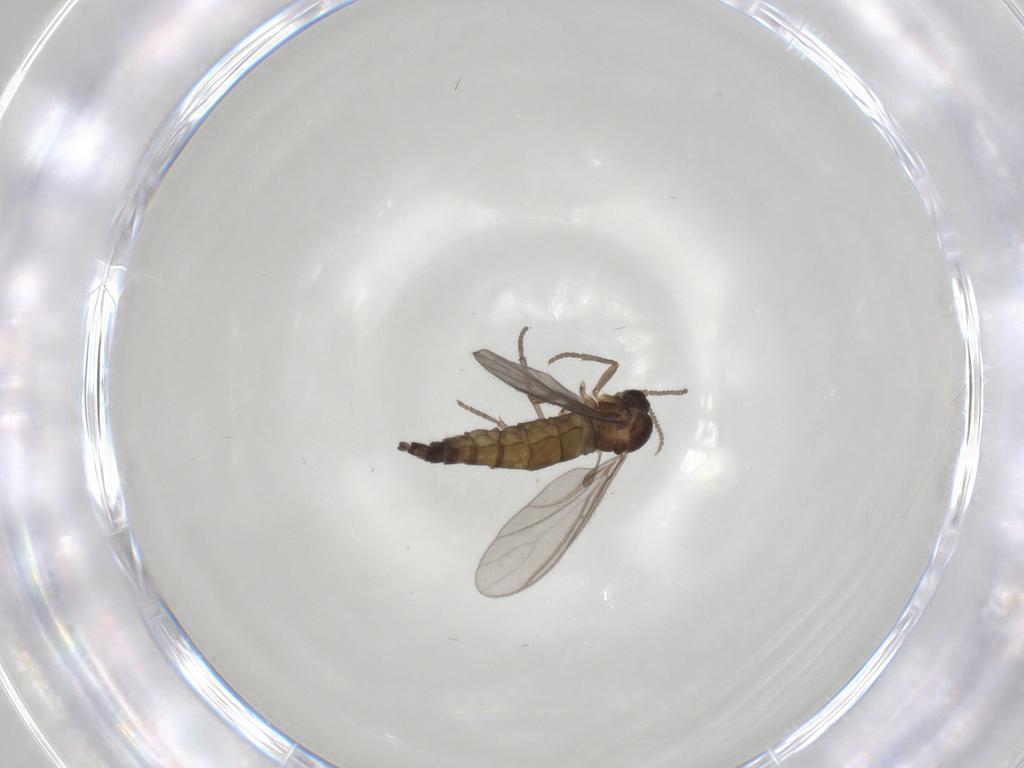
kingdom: Animalia
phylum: Arthropoda
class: Insecta
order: Diptera
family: Sciaridae
